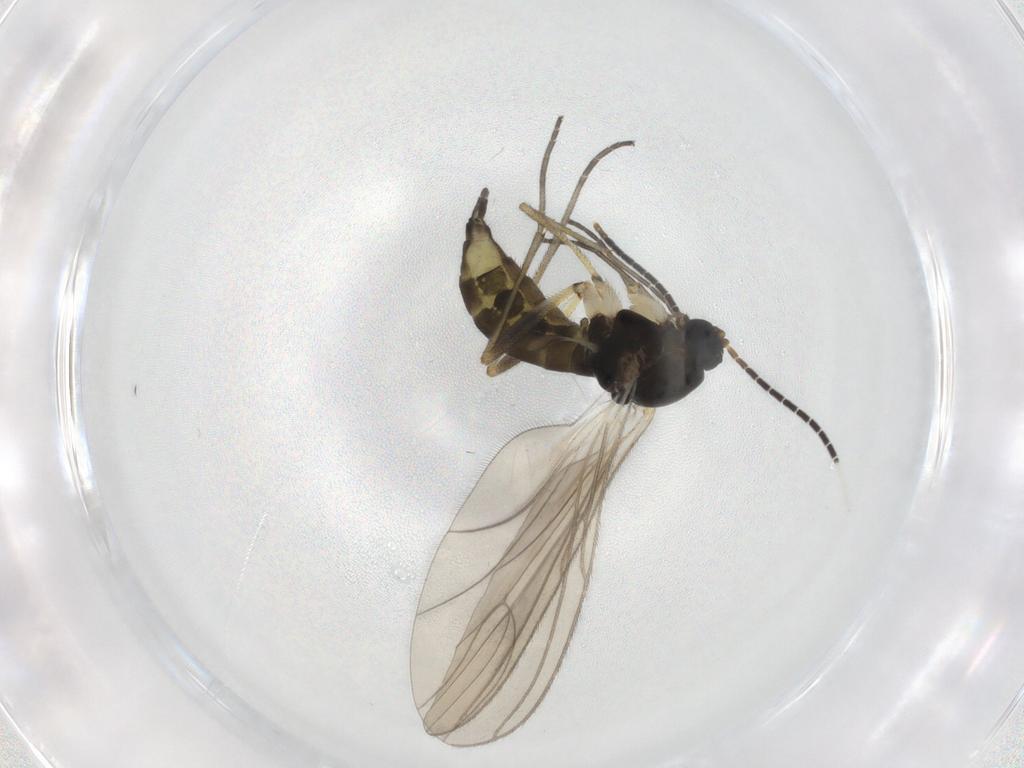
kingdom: Animalia
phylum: Arthropoda
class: Insecta
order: Diptera
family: Sciaridae
